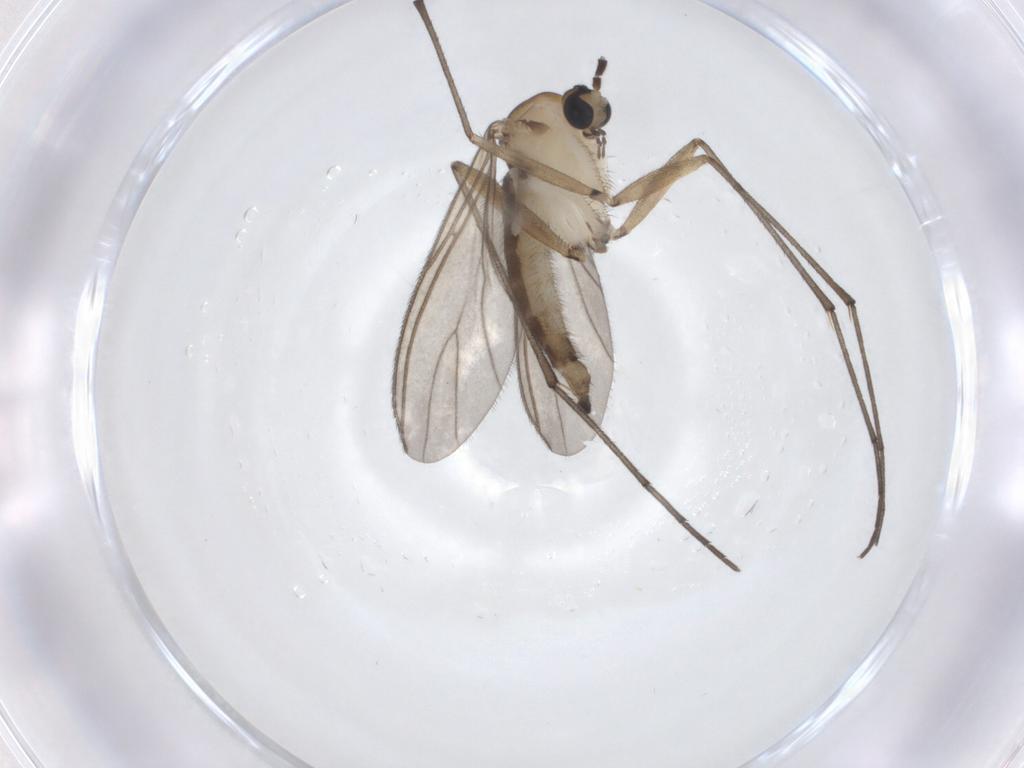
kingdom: Animalia
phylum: Arthropoda
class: Insecta
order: Diptera
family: Sciaridae
